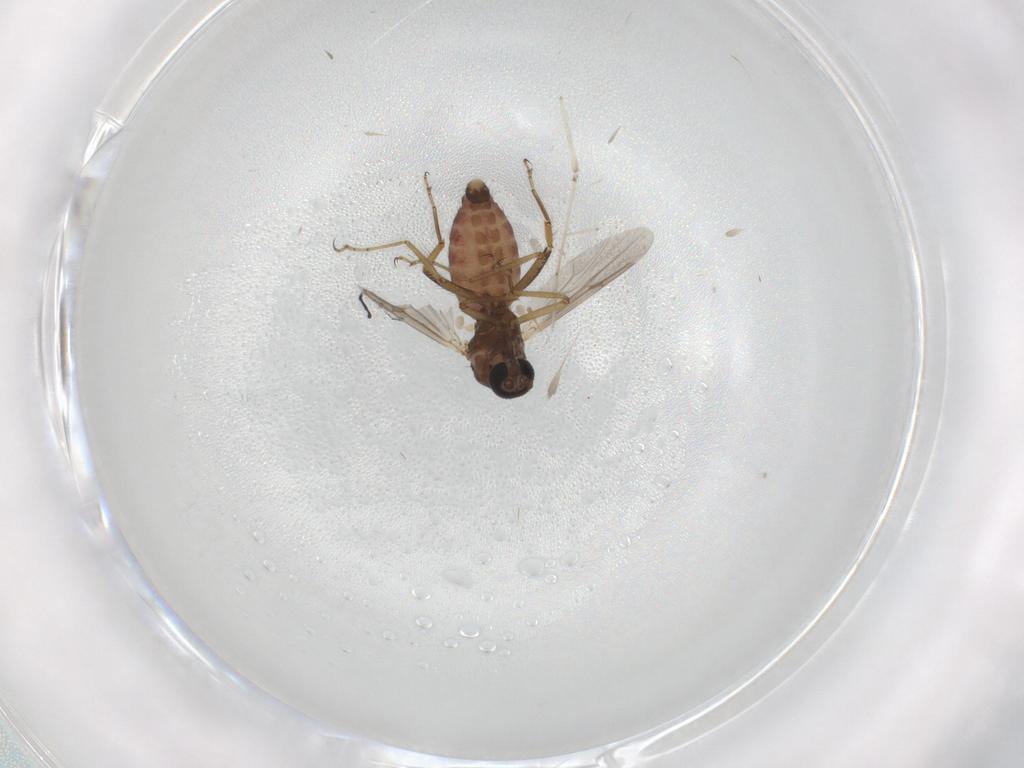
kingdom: Animalia
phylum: Arthropoda
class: Insecta
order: Diptera
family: Ceratopogonidae
